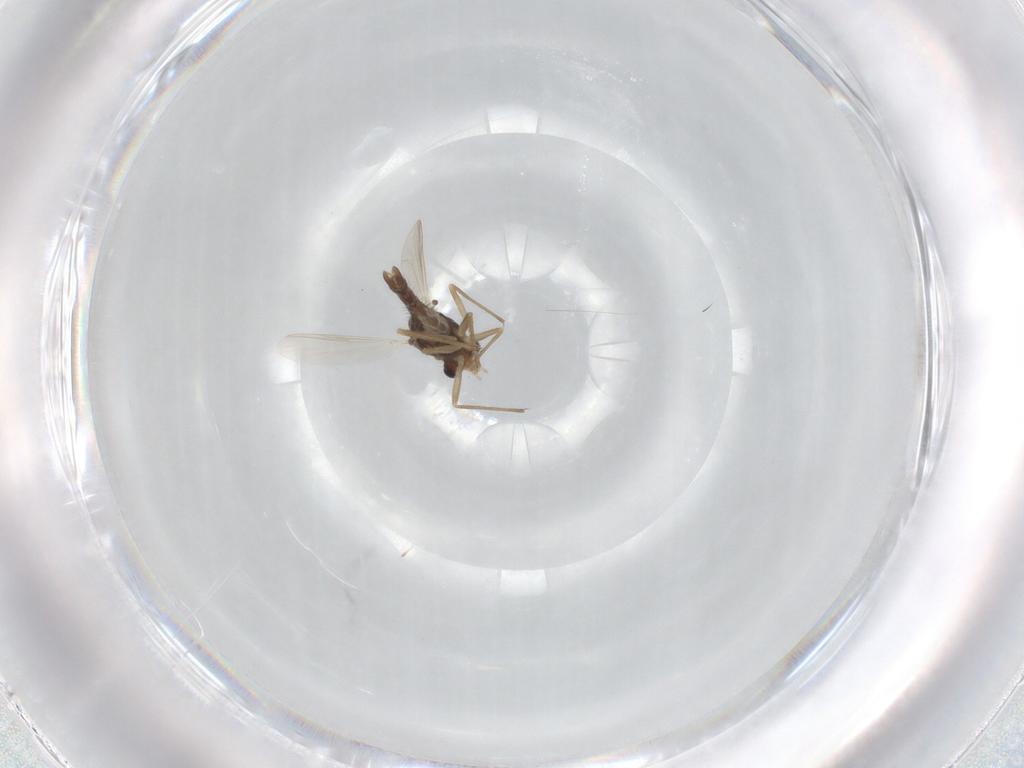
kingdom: Animalia
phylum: Arthropoda
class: Insecta
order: Diptera
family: Chironomidae
